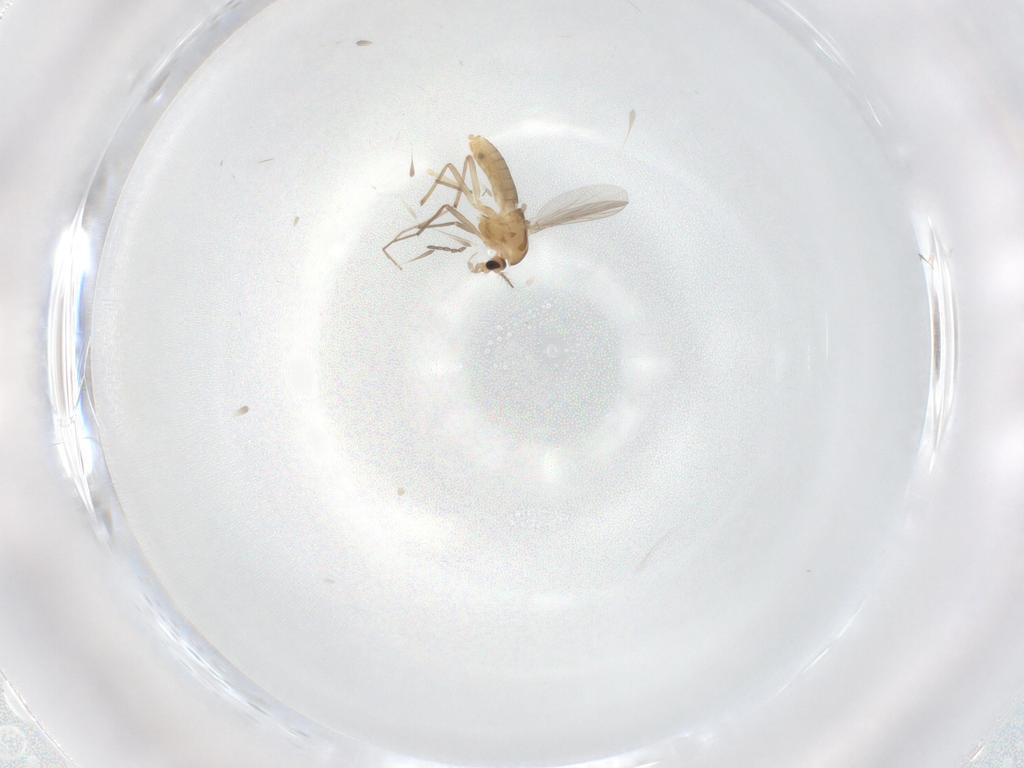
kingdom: Animalia
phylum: Arthropoda
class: Insecta
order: Diptera
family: Chironomidae
